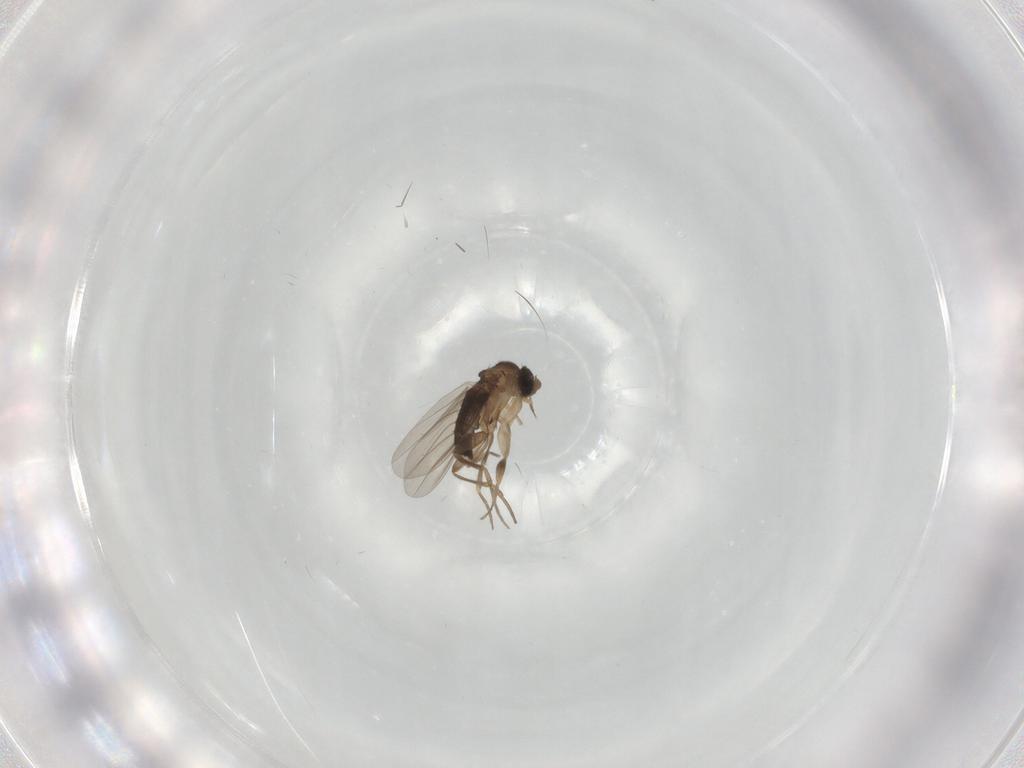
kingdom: Animalia
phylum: Arthropoda
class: Insecta
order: Diptera
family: Phoridae
